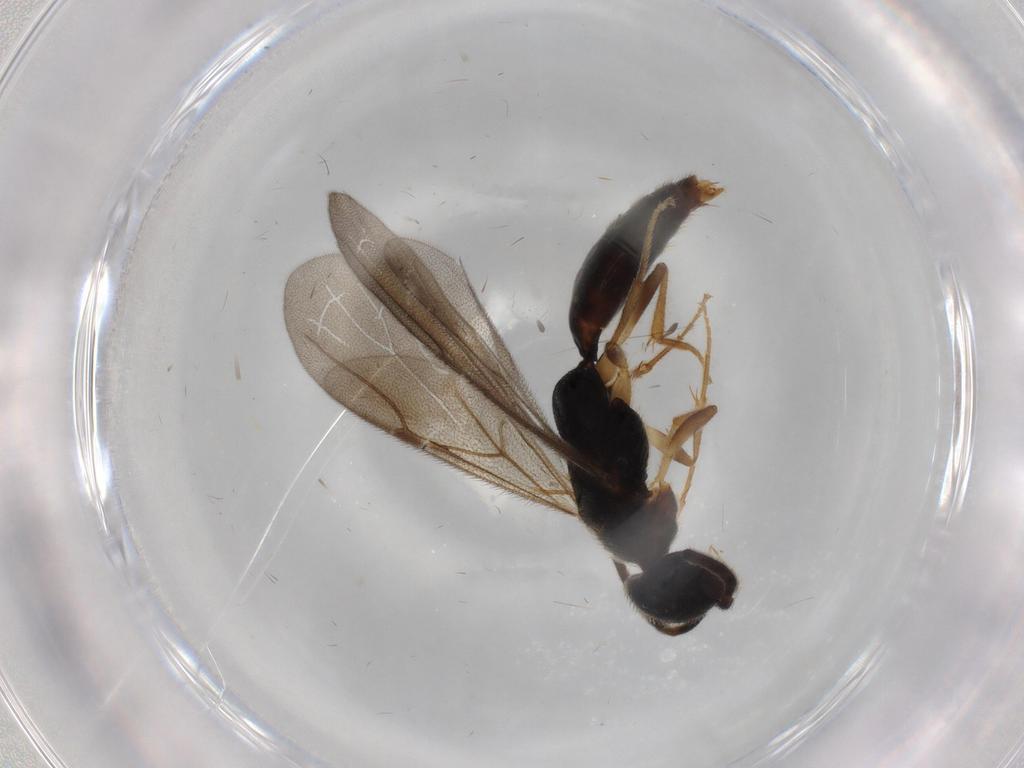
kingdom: Animalia
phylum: Arthropoda
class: Insecta
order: Hymenoptera
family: Bethylidae
